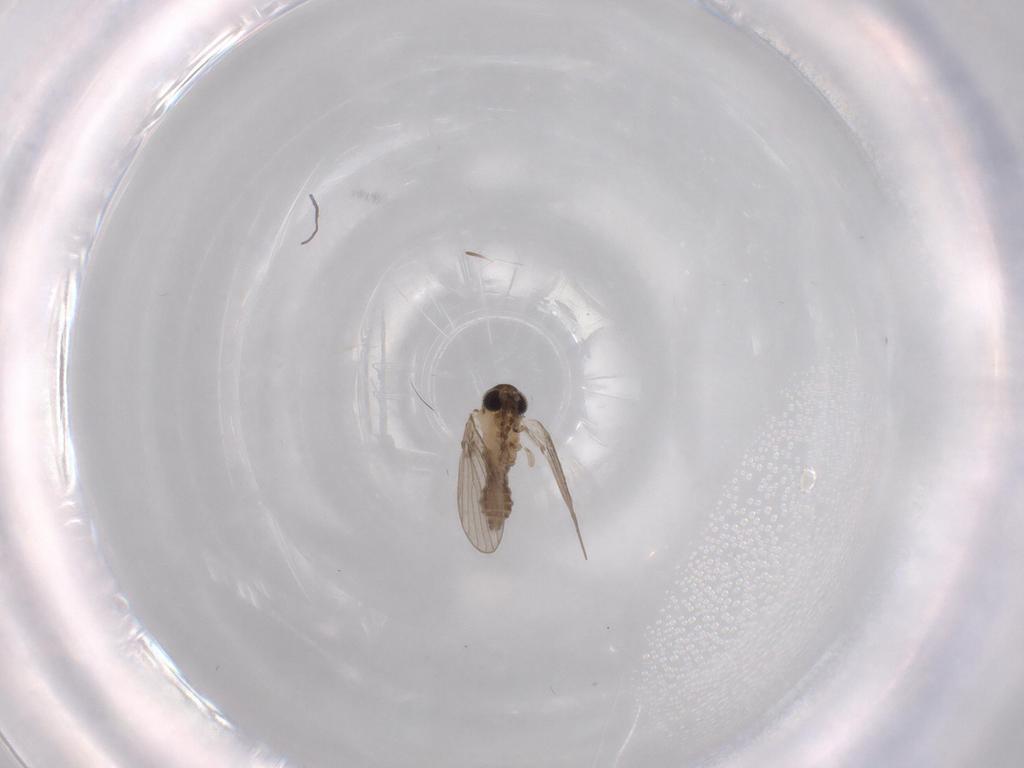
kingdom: Animalia
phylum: Arthropoda
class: Insecta
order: Diptera
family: Psychodidae
